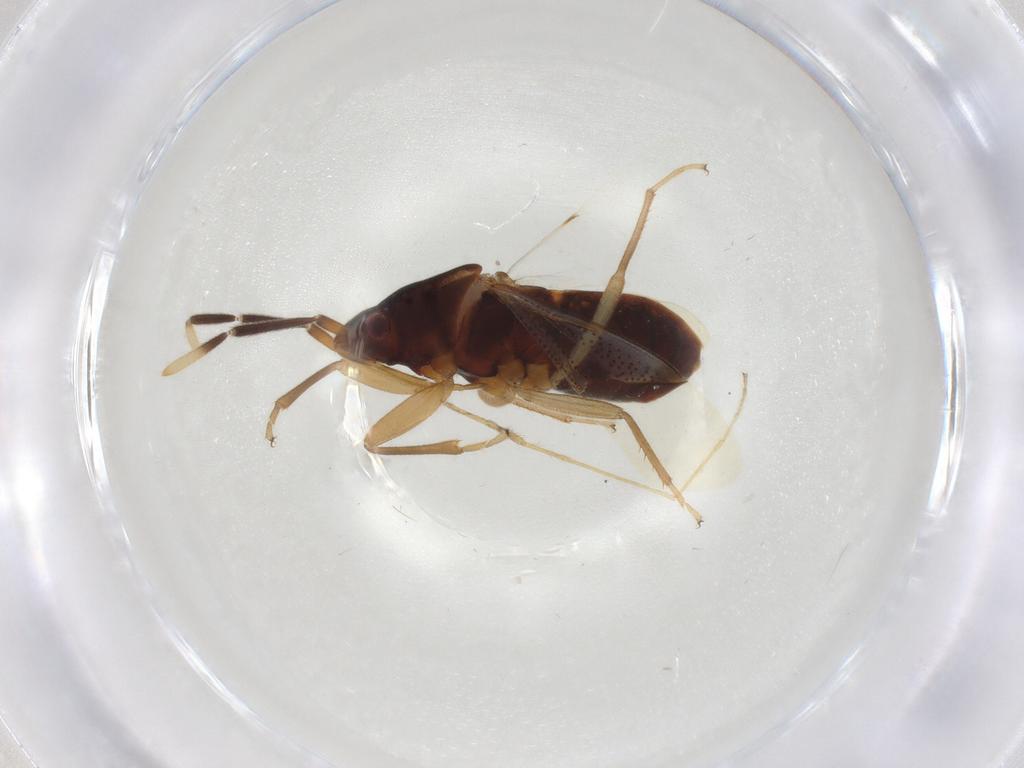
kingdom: Animalia
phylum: Arthropoda
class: Insecta
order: Hemiptera
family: Rhyparochromidae
